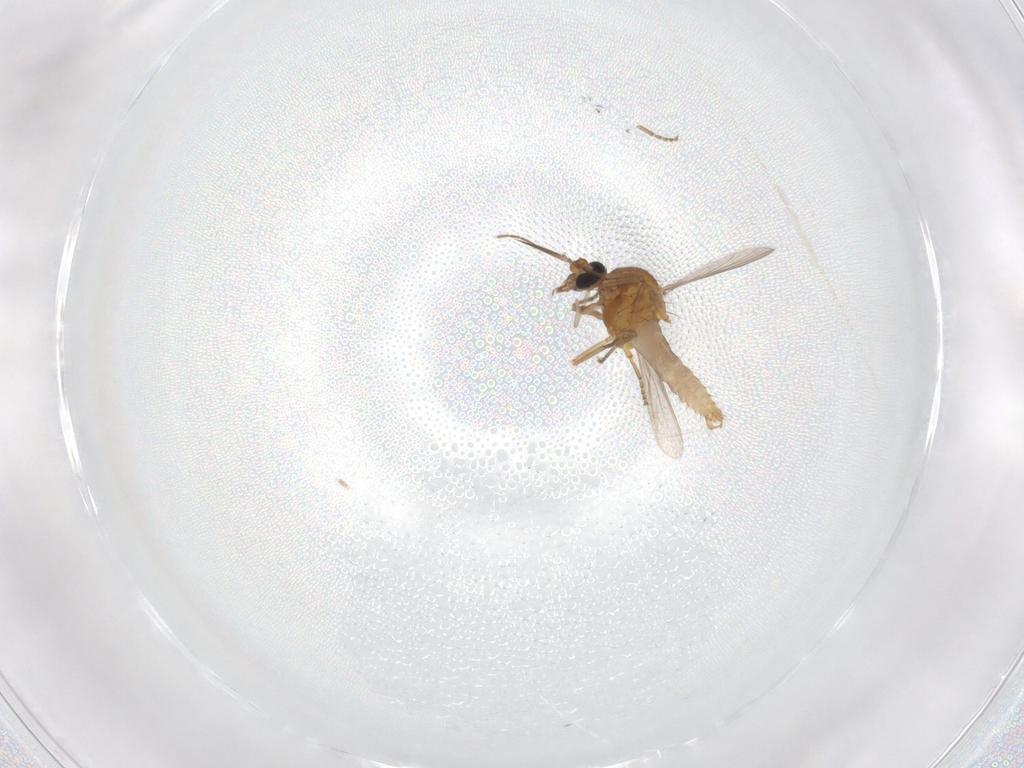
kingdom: Animalia
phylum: Arthropoda
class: Insecta
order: Diptera
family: Ceratopogonidae
